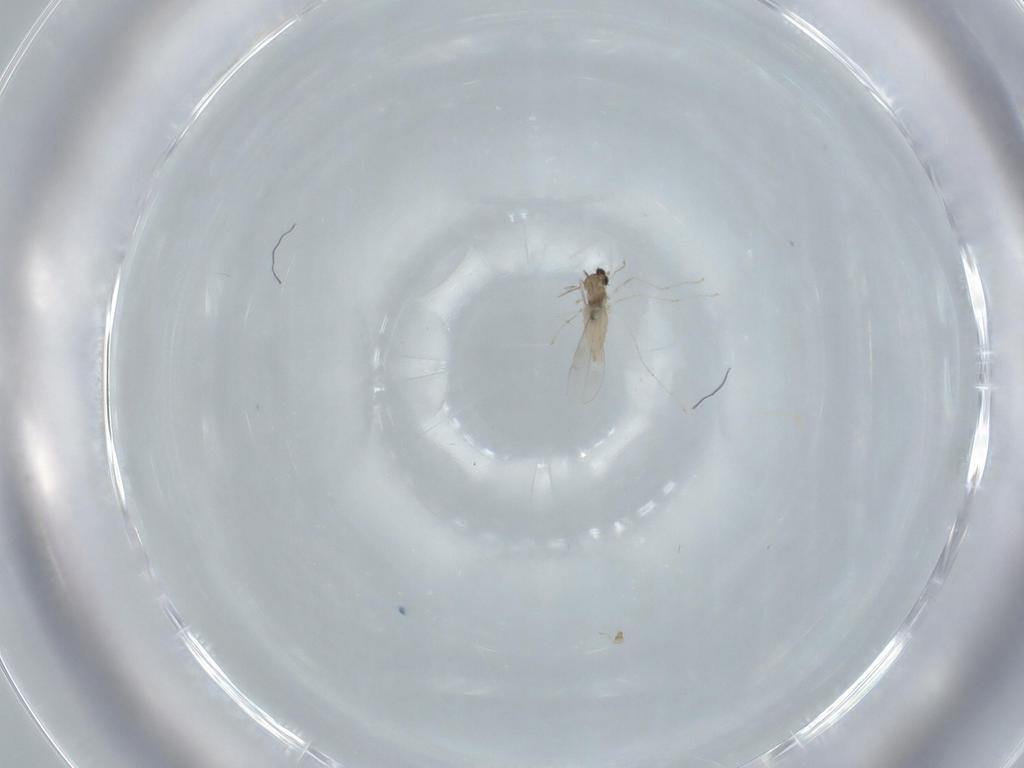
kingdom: Animalia
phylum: Arthropoda
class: Insecta
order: Diptera
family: Cecidomyiidae
